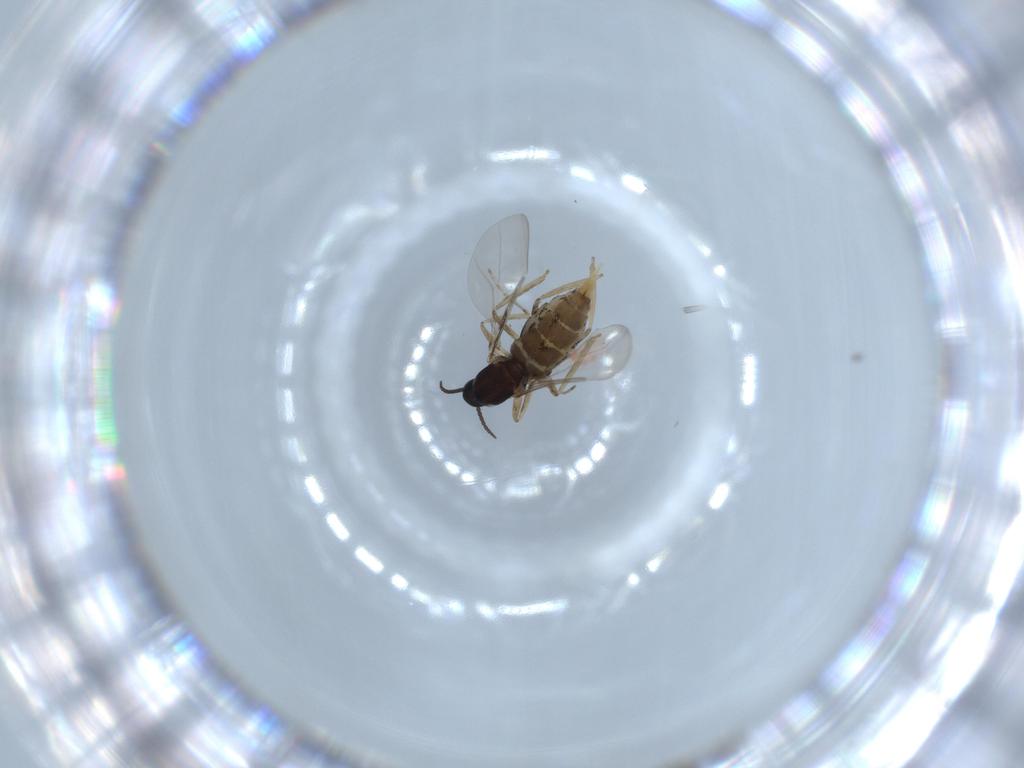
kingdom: Animalia
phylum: Arthropoda
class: Insecta
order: Diptera
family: Cecidomyiidae
